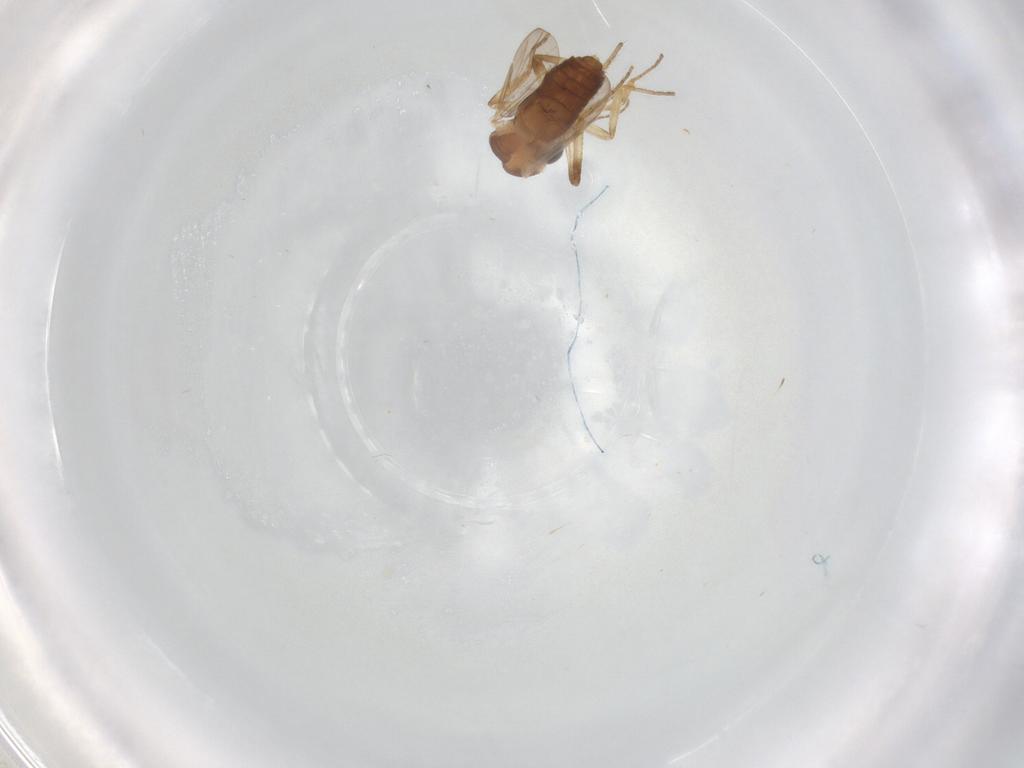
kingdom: Animalia
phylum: Arthropoda
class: Insecta
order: Diptera
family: Ceratopogonidae
